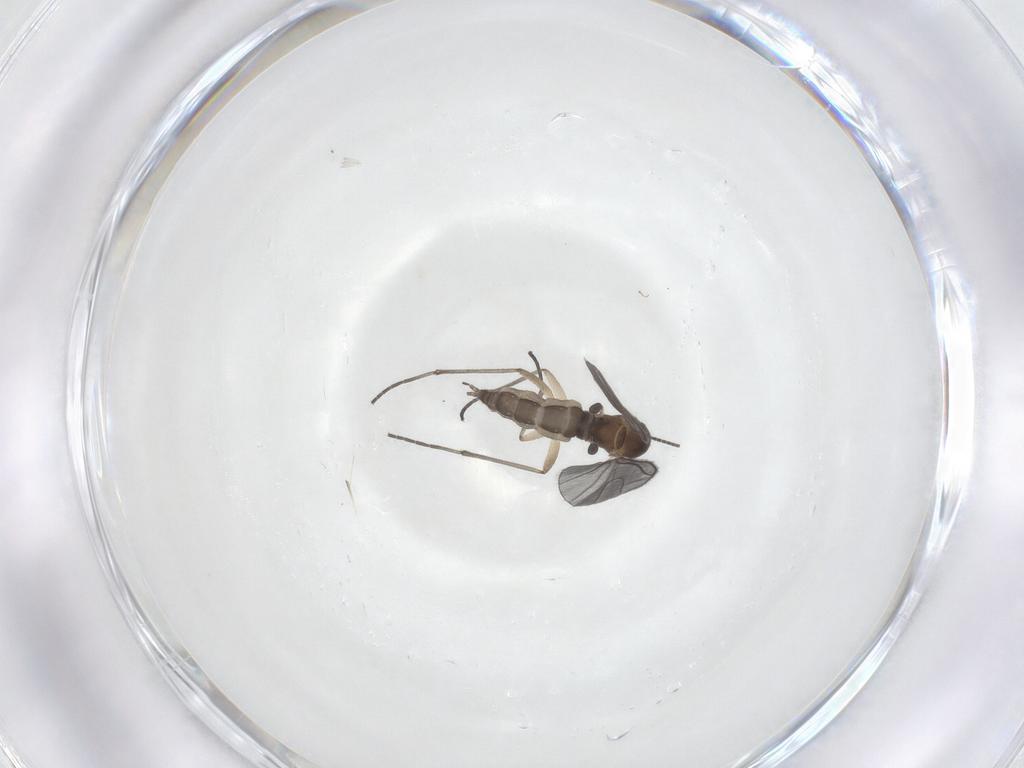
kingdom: Animalia
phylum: Arthropoda
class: Insecta
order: Diptera
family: Sciaridae
